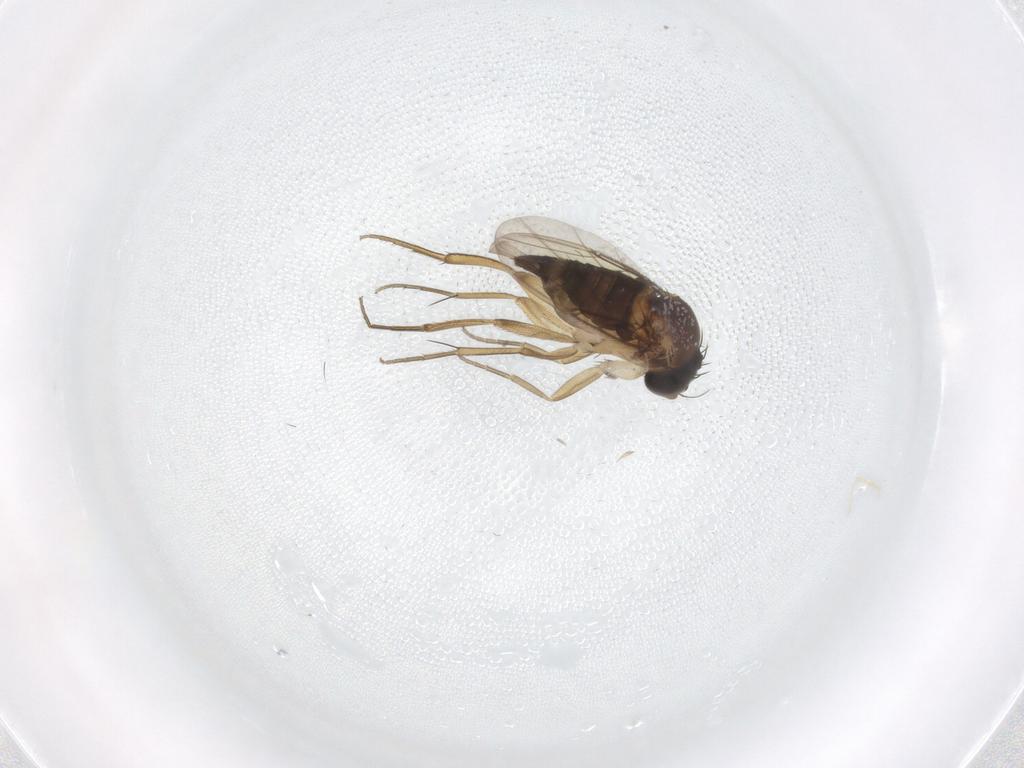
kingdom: Animalia
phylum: Arthropoda
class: Insecta
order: Diptera
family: Phoridae
